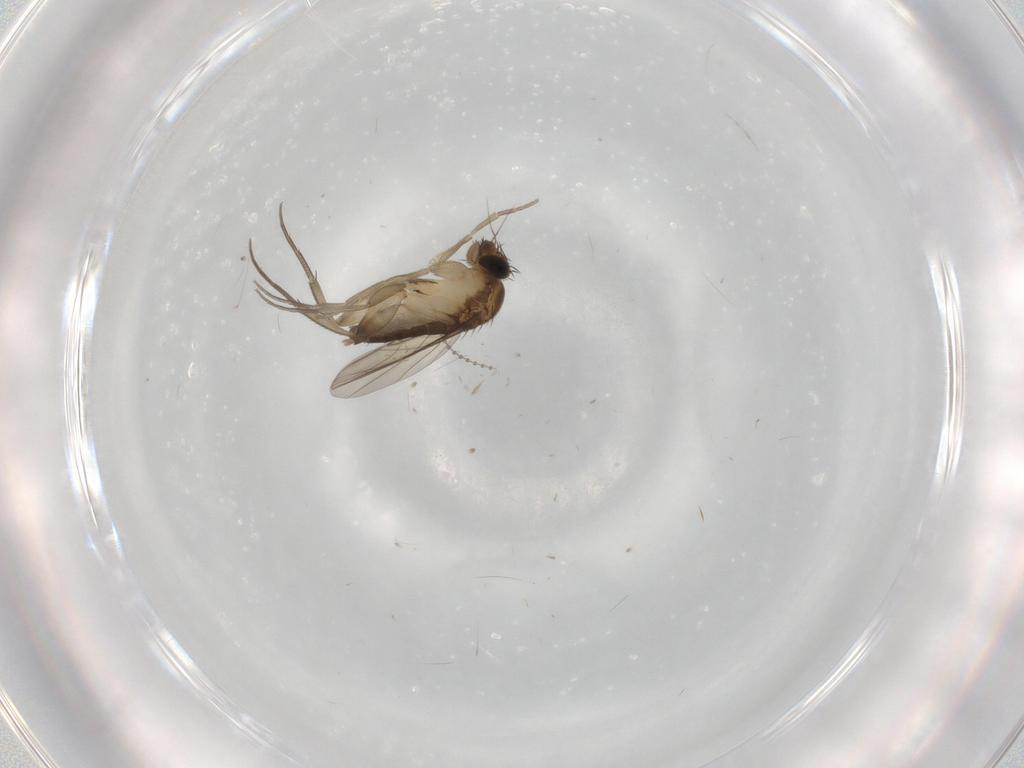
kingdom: Animalia
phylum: Arthropoda
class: Insecta
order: Diptera
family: Phoridae
